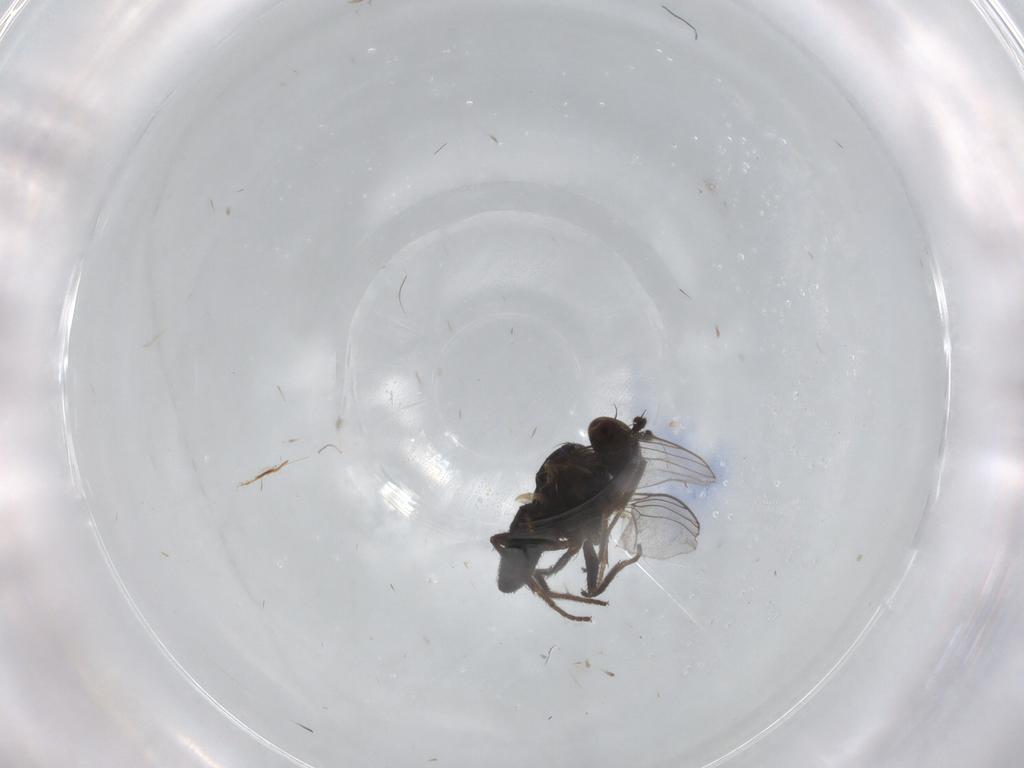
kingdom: Animalia
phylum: Arthropoda
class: Insecta
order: Diptera
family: Dolichopodidae
